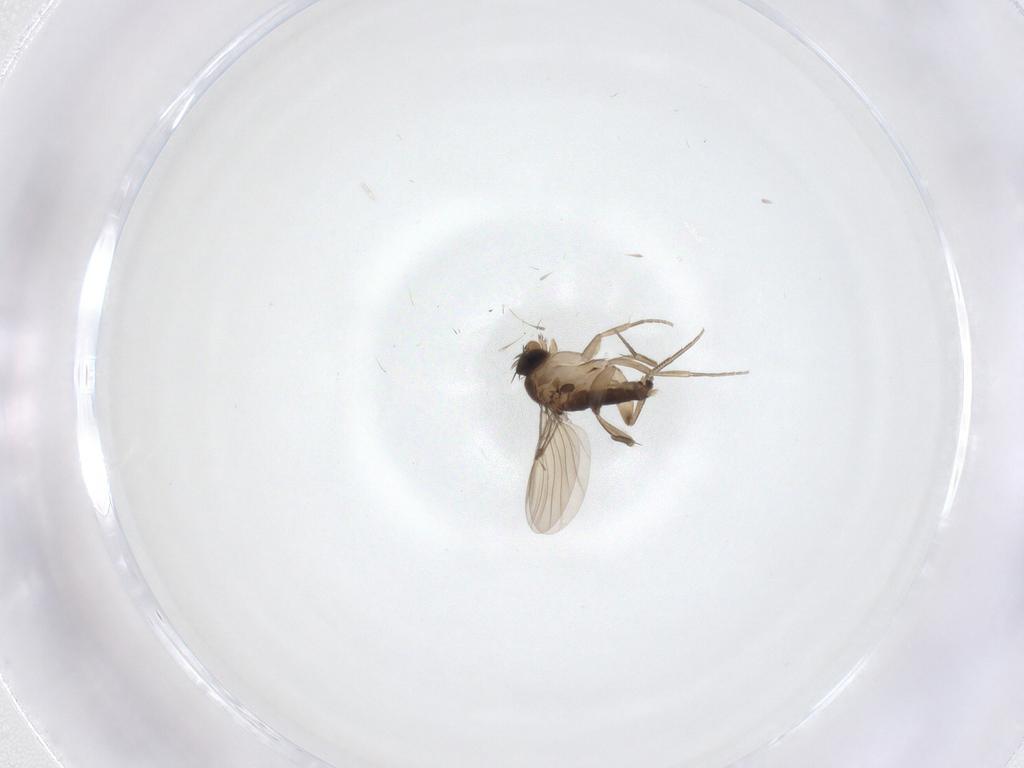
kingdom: Animalia
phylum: Arthropoda
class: Insecta
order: Diptera
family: Phoridae
